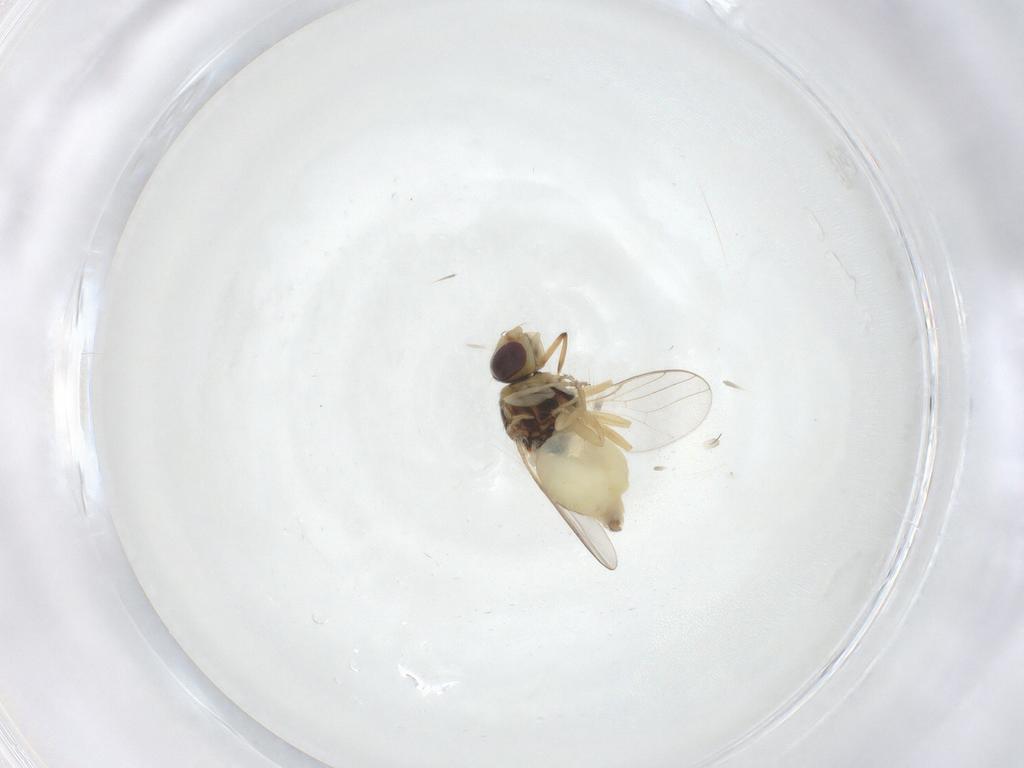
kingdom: Animalia
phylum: Arthropoda
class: Insecta
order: Diptera
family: Chloropidae
